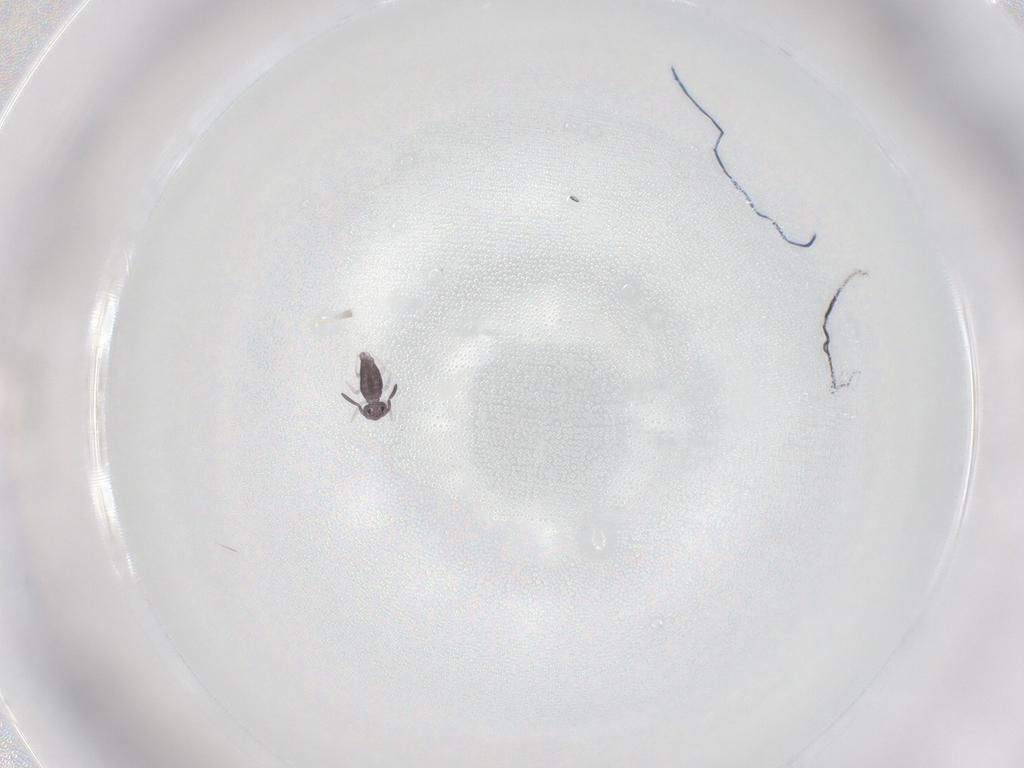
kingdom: Animalia
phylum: Arthropoda
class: Collembola
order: Symphypleona
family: Katiannidae
